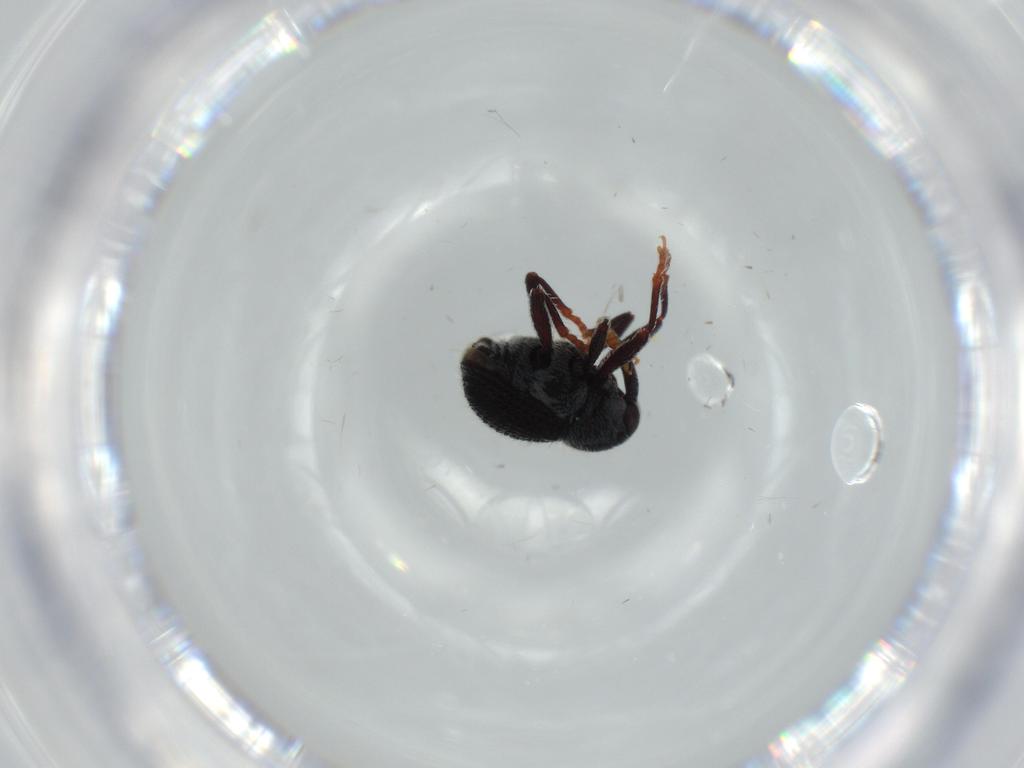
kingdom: Animalia
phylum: Arthropoda
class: Insecta
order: Coleoptera
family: Curculionidae
